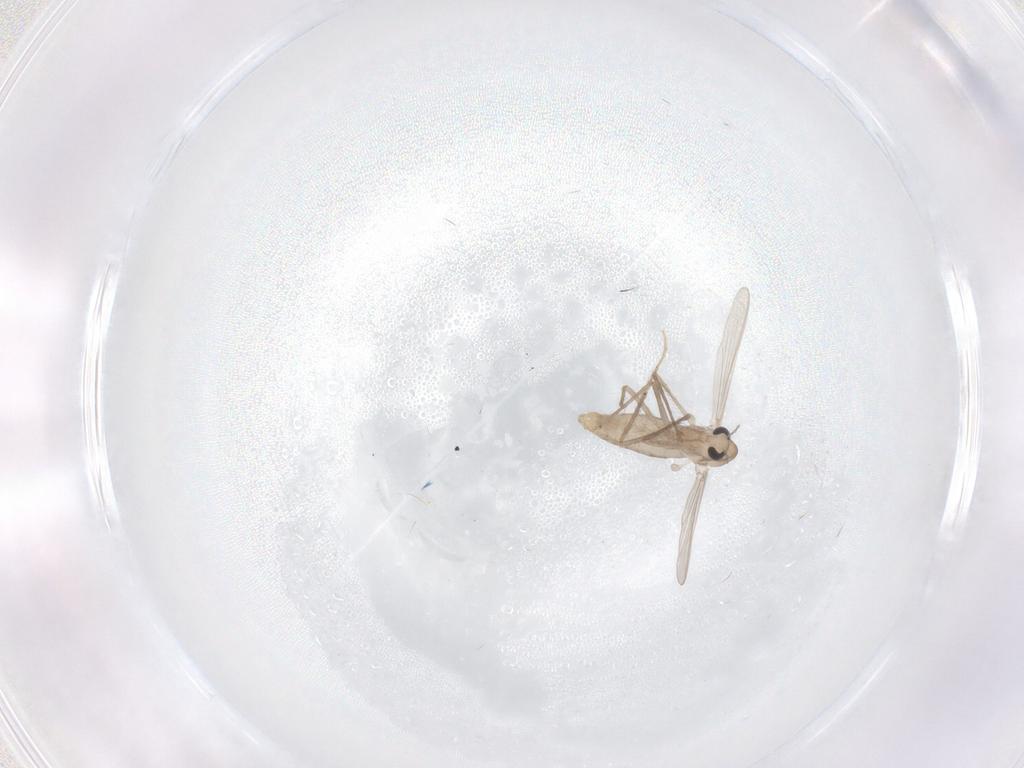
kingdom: Animalia
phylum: Arthropoda
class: Insecta
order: Diptera
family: Chironomidae
